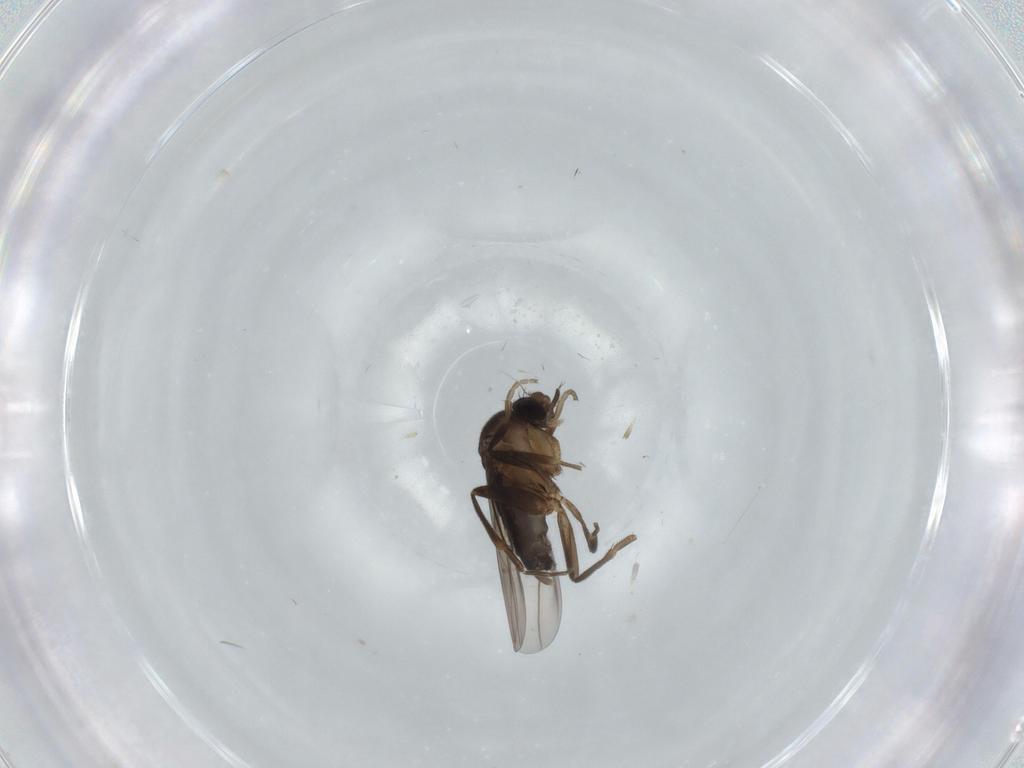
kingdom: Animalia
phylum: Arthropoda
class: Insecta
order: Diptera
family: Phoridae
